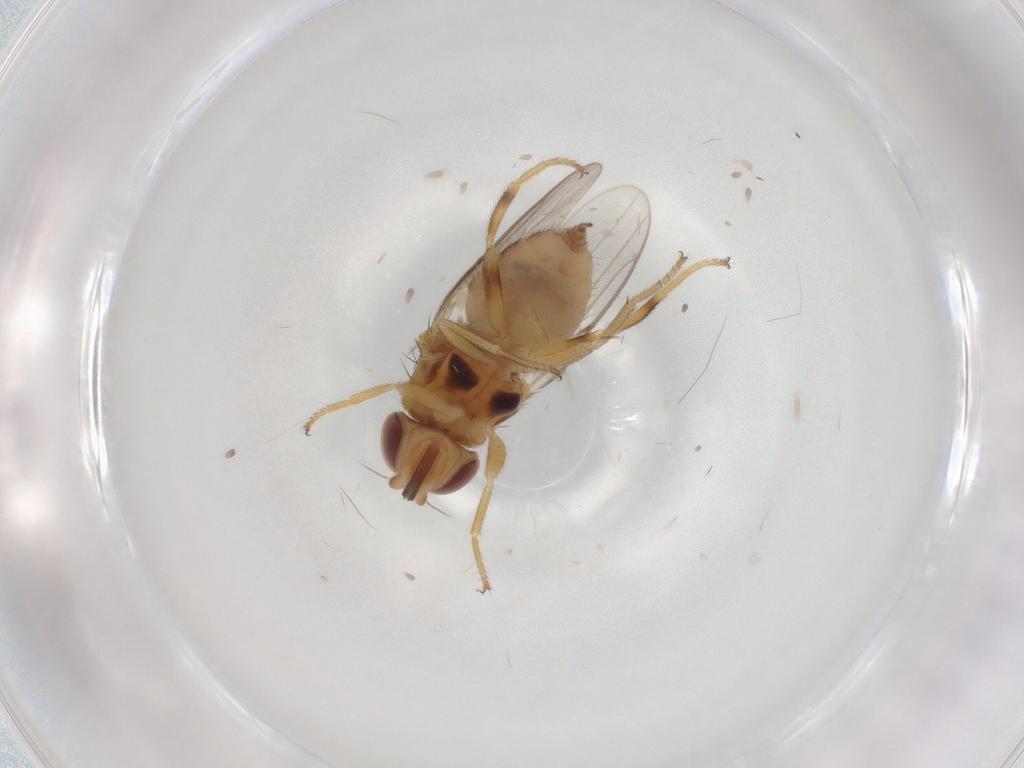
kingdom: Animalia
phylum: Arthropoda
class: Insecta
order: Diptera
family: Chloropidae
